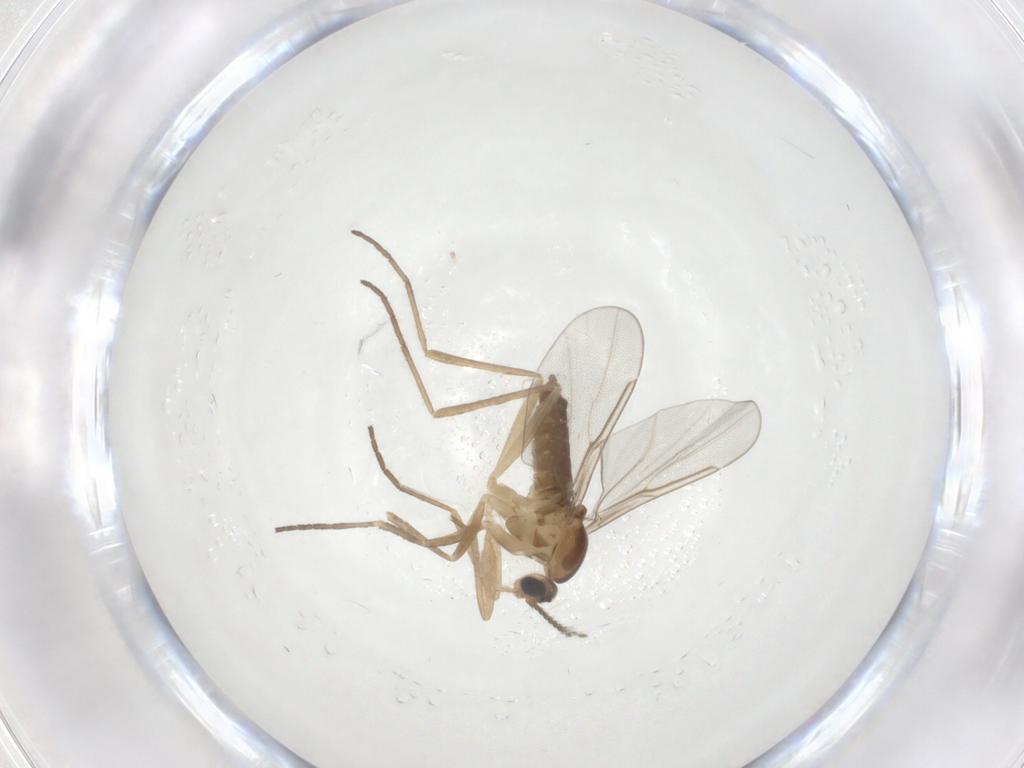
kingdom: Animalia
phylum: Arthropoda
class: Insecta
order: Diptera
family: Cecidomyiidae
